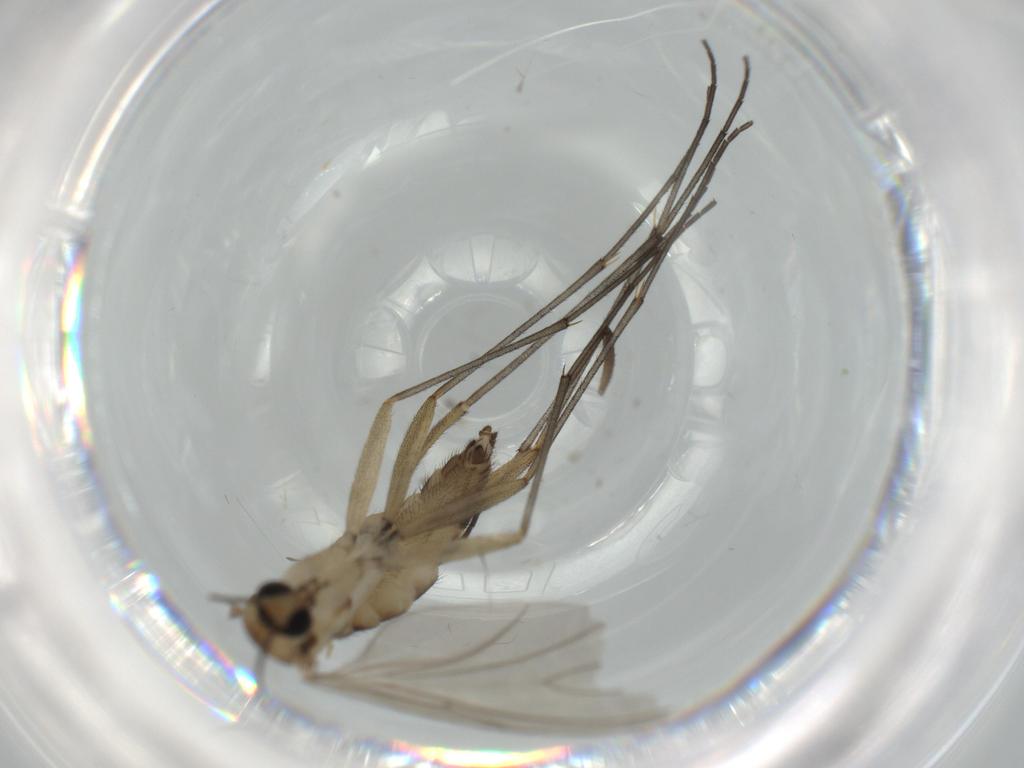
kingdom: Animalia
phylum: Arthropoda
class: Insecta
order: Diptera
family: Sciaridae
